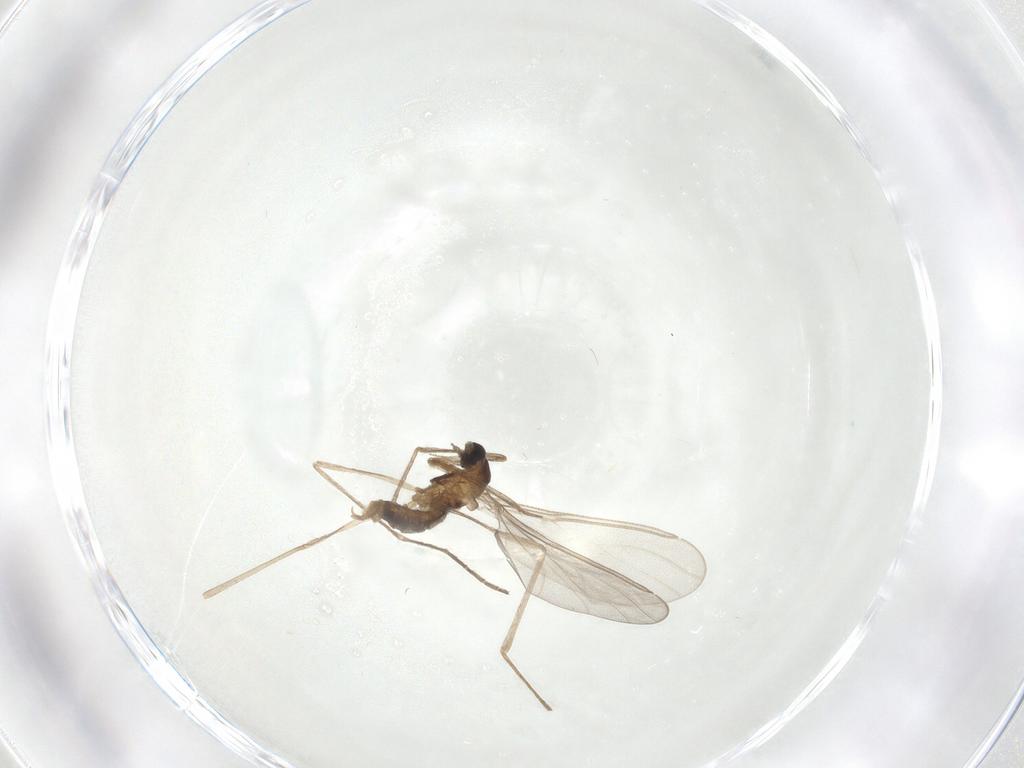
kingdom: Animalia
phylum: Arthropoda
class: Insecta
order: Diptera
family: Cecidomyiidae
